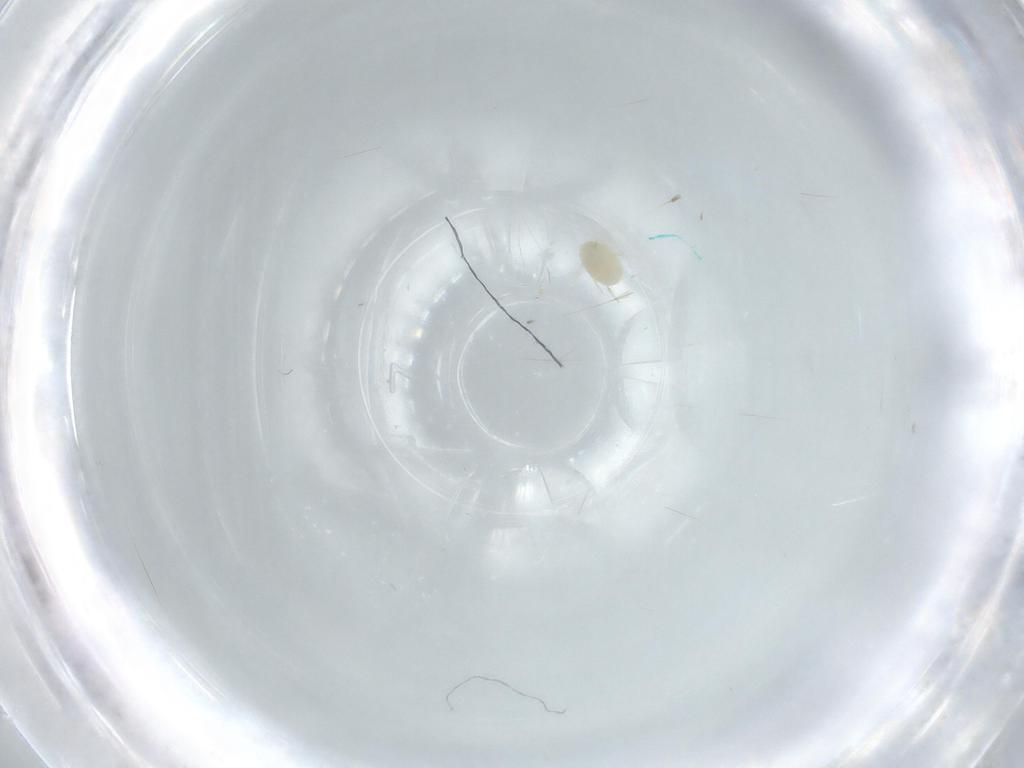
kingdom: Animalia
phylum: Arthropoda
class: Arachnida
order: Trombidiformes
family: Microtrombidiidae
